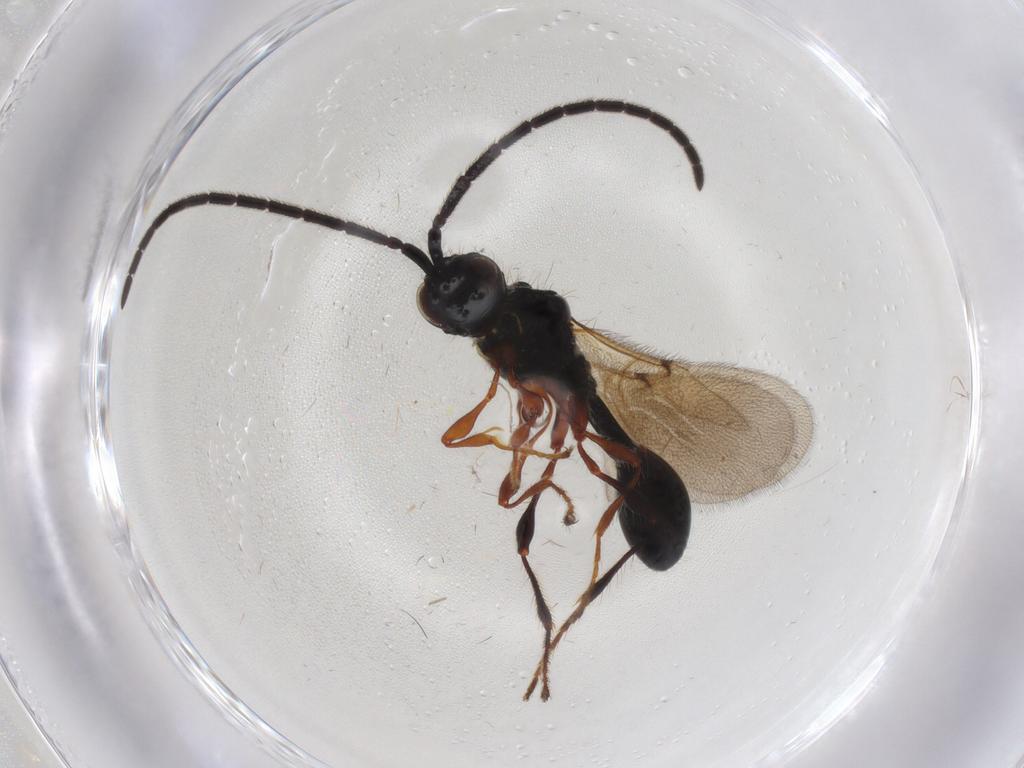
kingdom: Animalia
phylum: Arthropoda
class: Insecta
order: Hymenoptera
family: Diapriidae
